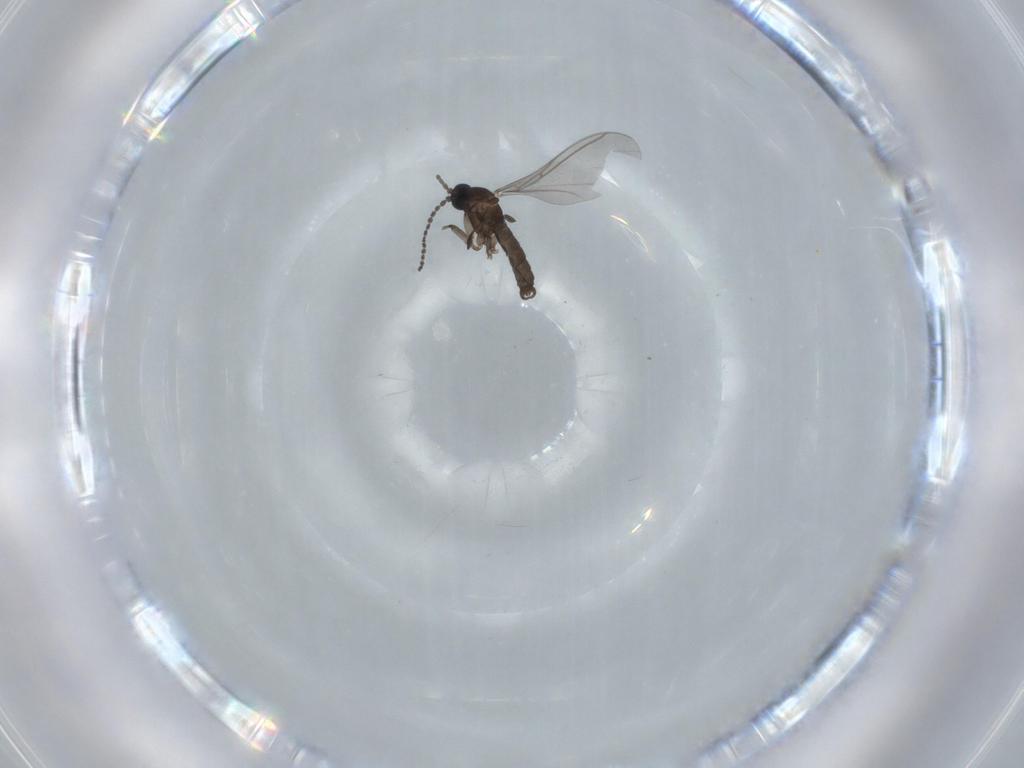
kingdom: Animalia
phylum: Arthropoda
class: Insecta
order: Diptera
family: Sciaridae
